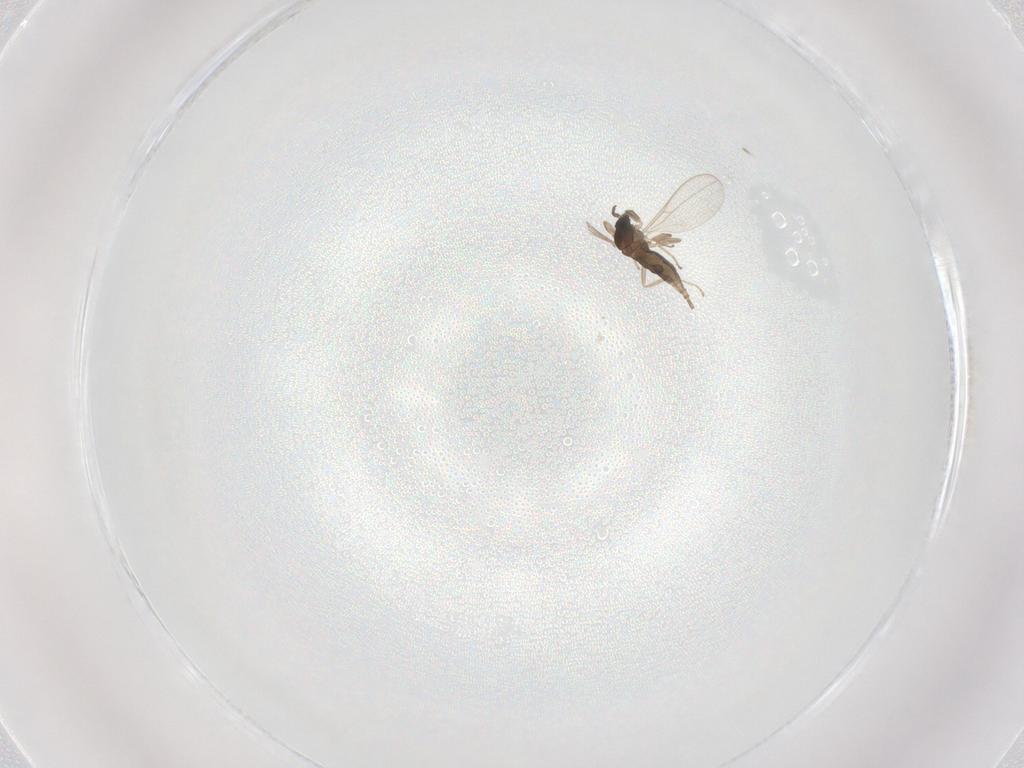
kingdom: Animalia
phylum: Arthropoda
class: Insecta
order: Diptera
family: Cecidomyiidae
